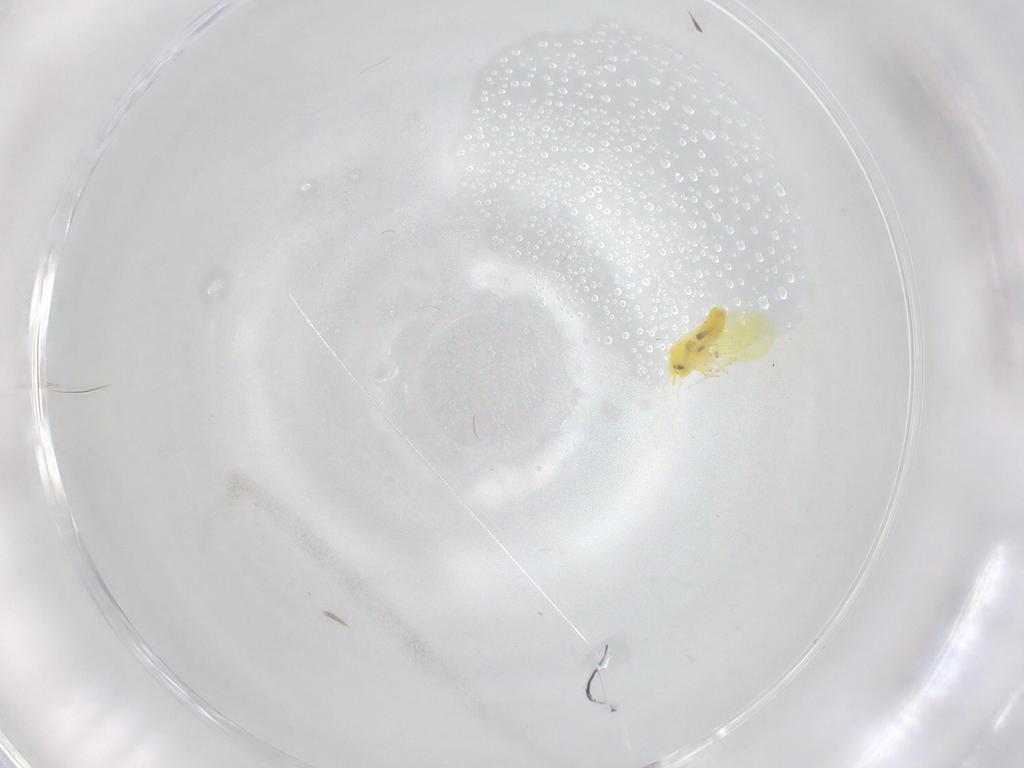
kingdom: Animalia
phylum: Arthropoda
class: Insecta
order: Hemiptera
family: Aleyrodidae
